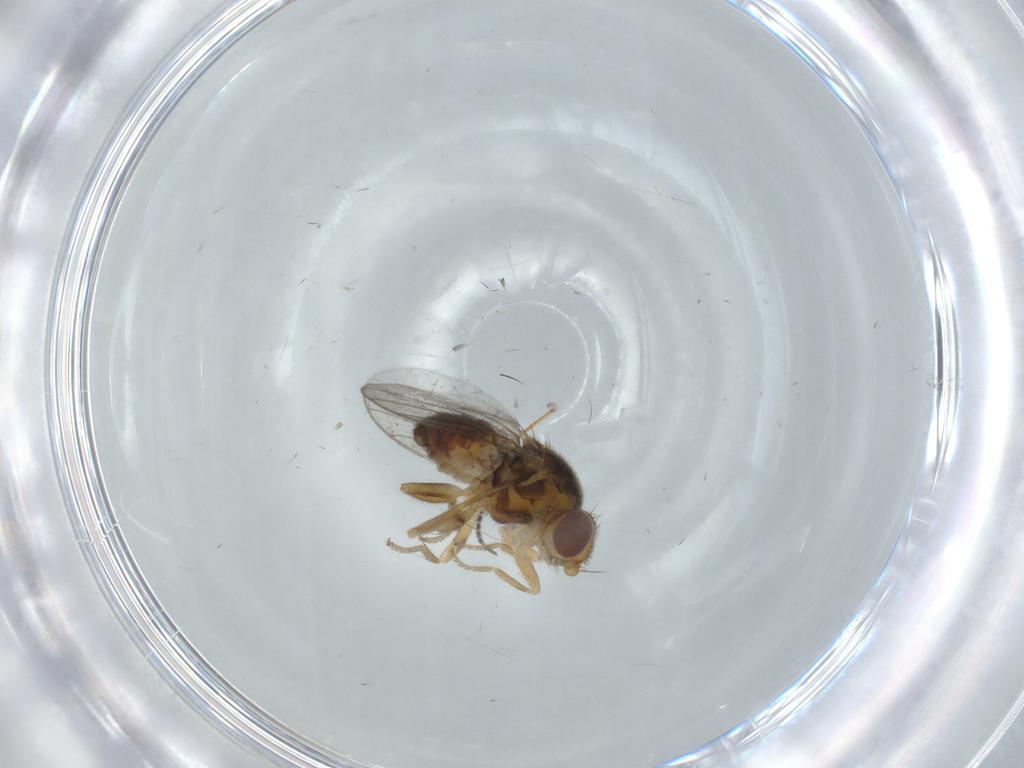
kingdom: Animalia
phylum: Arthropoda
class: Insecta
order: Diptera
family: Chloropidae
